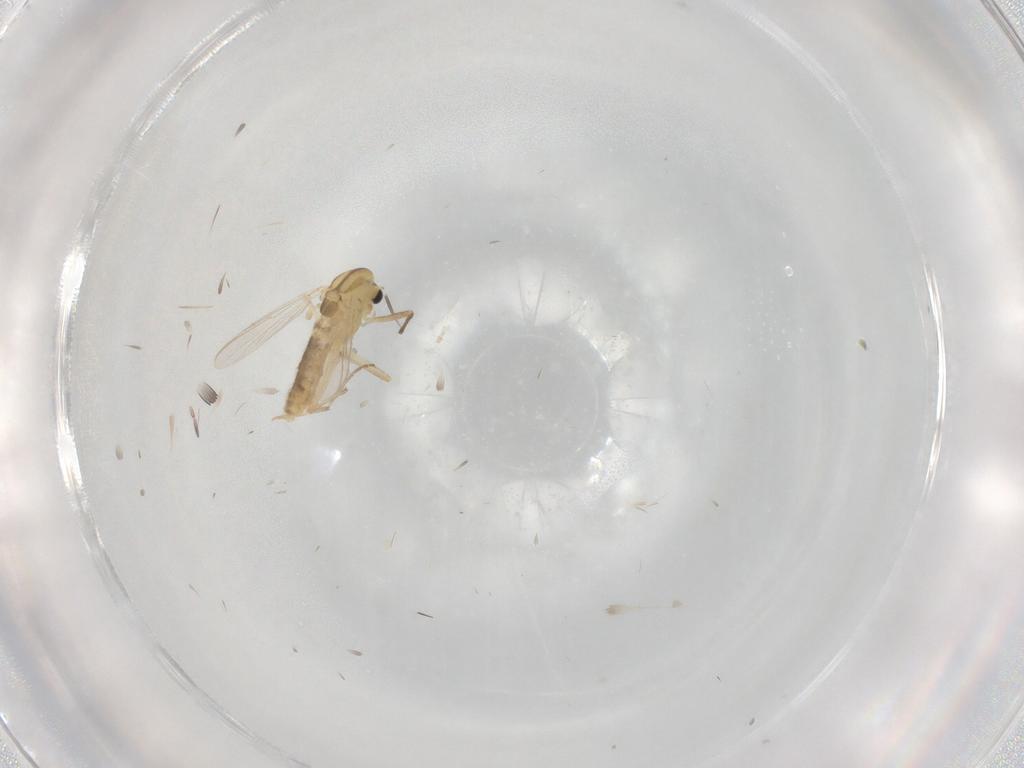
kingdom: Animalia
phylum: Arthropoda
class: Insecta
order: Diptera
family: Chironomidae
